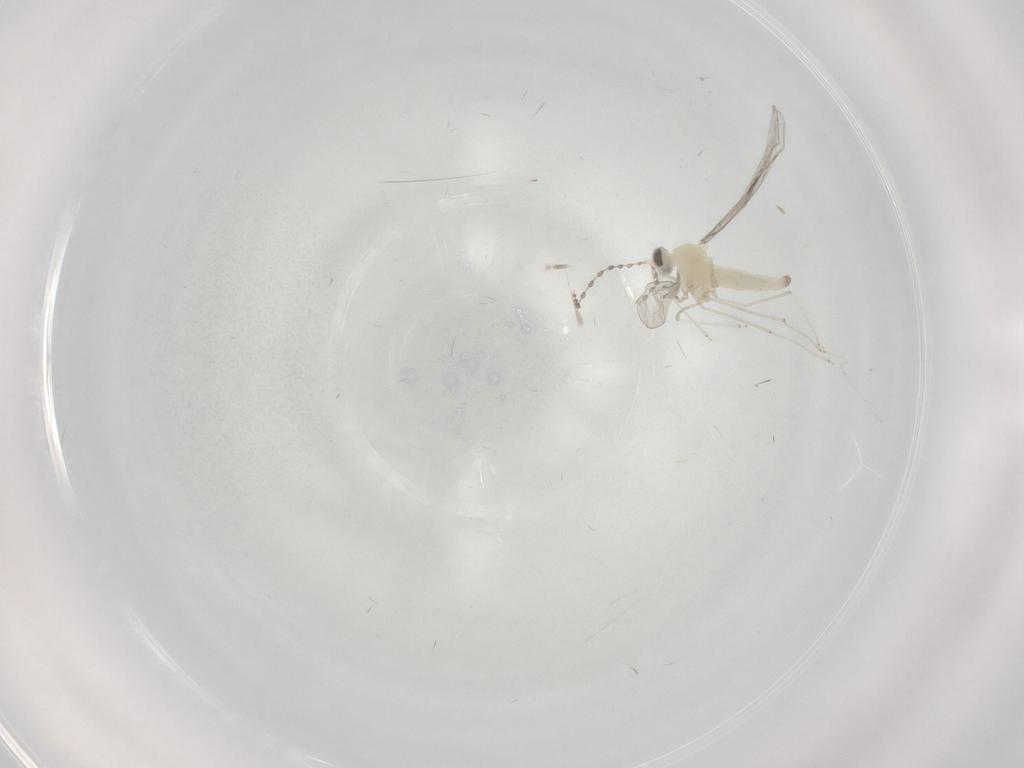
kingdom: Animalia
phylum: Arthropoda
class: Insecta
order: Diptera
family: Cecidomyiidae
